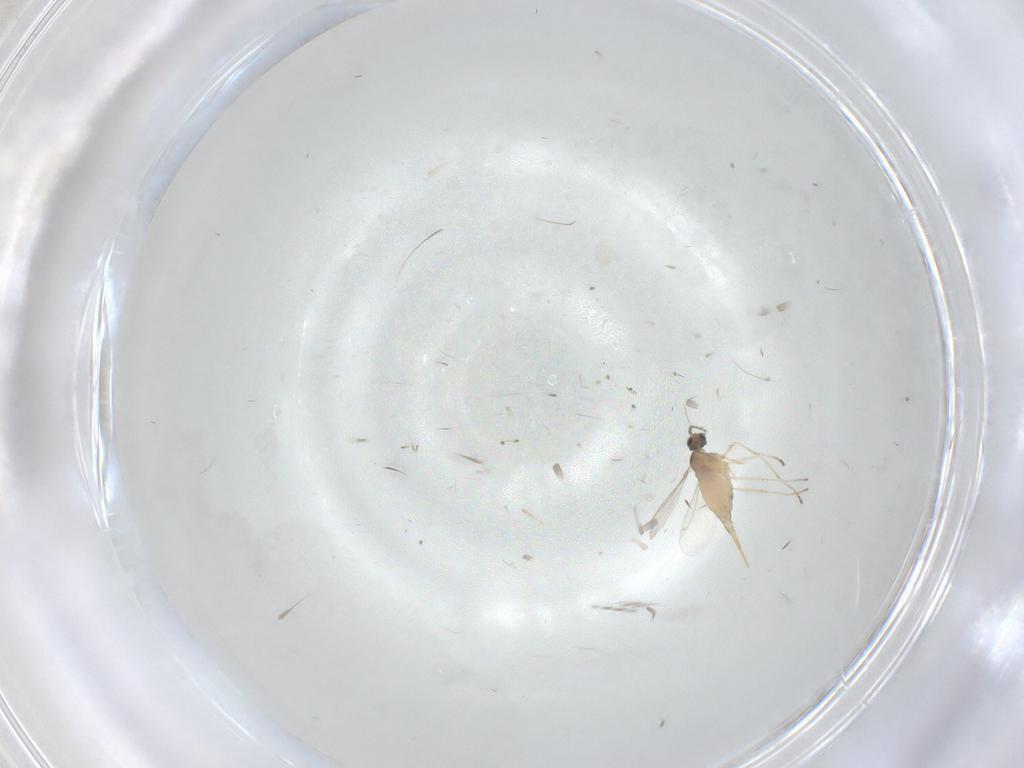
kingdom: Animalia
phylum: Arthropoda
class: Insecta
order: Diptera
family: Cecidomyiidae
